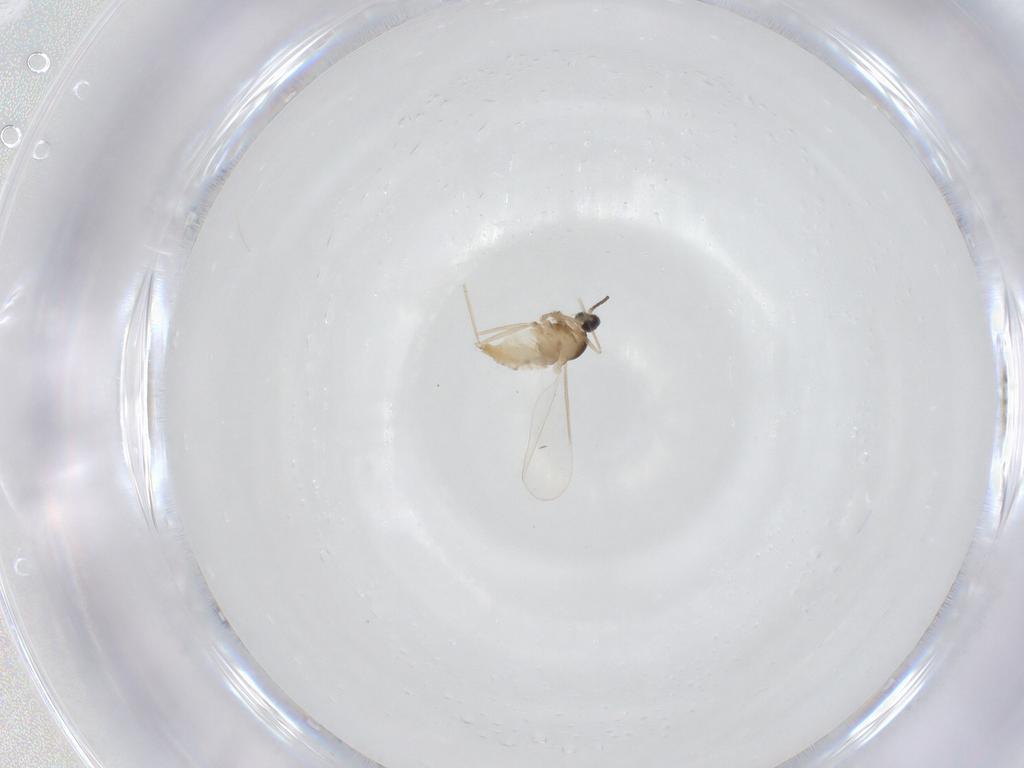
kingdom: Animalia
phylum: Arthropoda
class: Insecta
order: Diptera
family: Cecidomyiidae
